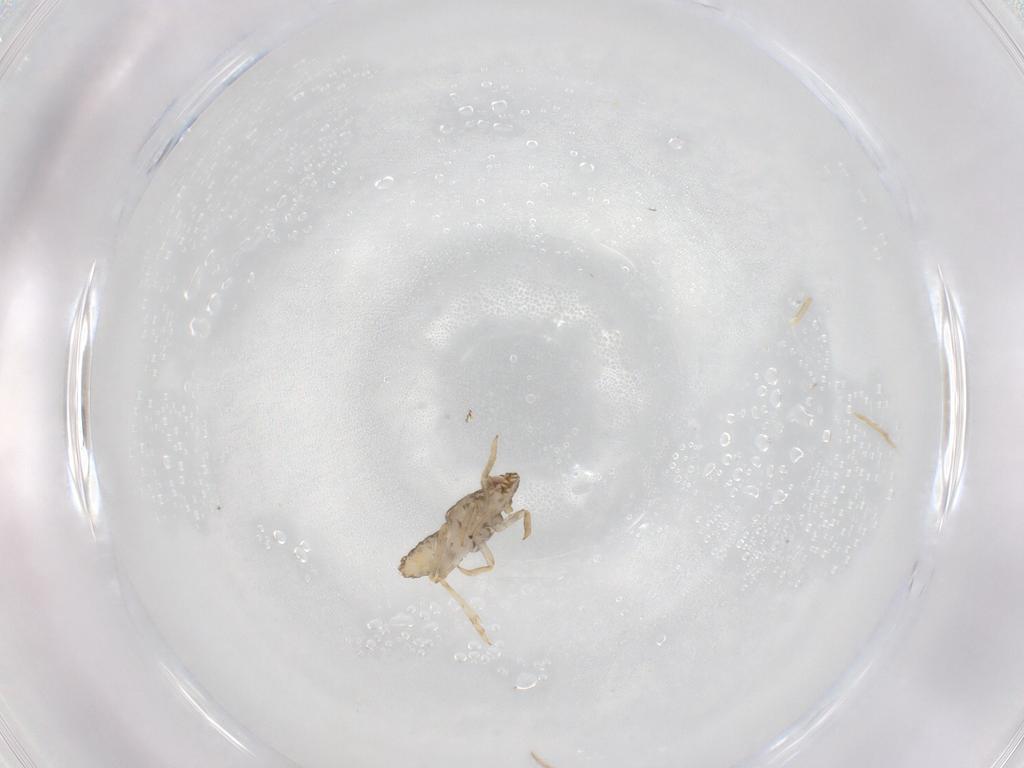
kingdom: Animalia
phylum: Arthropoda
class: Insecta
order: Hemiptera
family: Delphacidae
